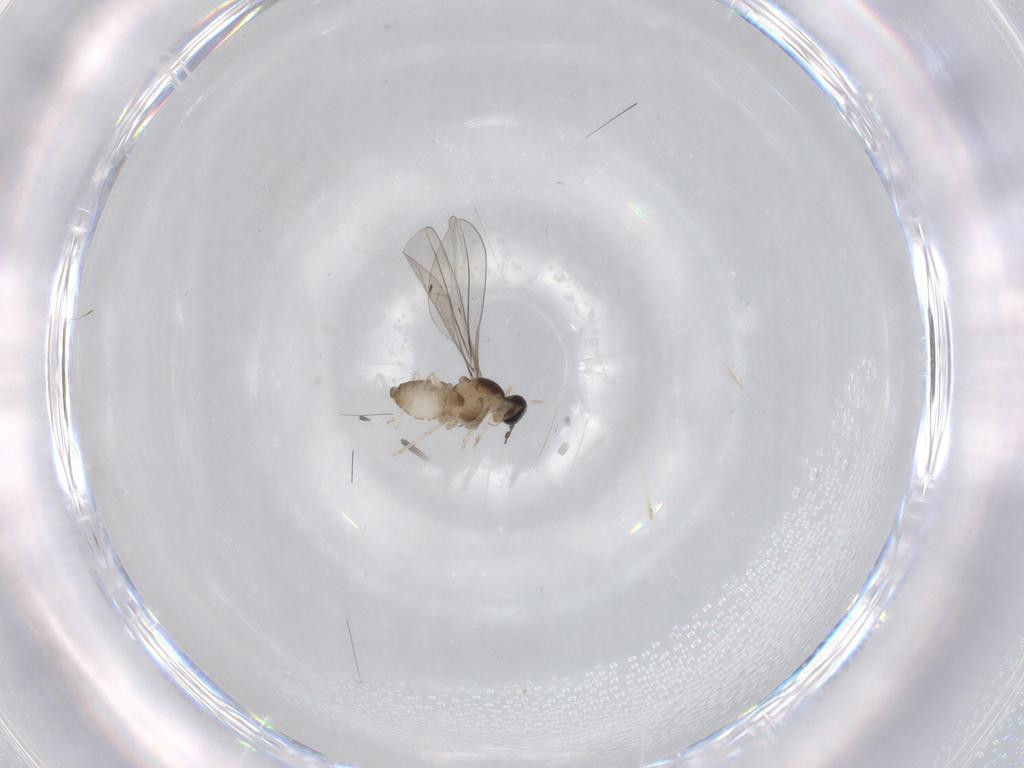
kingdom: Animalia
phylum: Arthropoda
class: Insecta
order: Diptera
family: Cecidomyiidae
